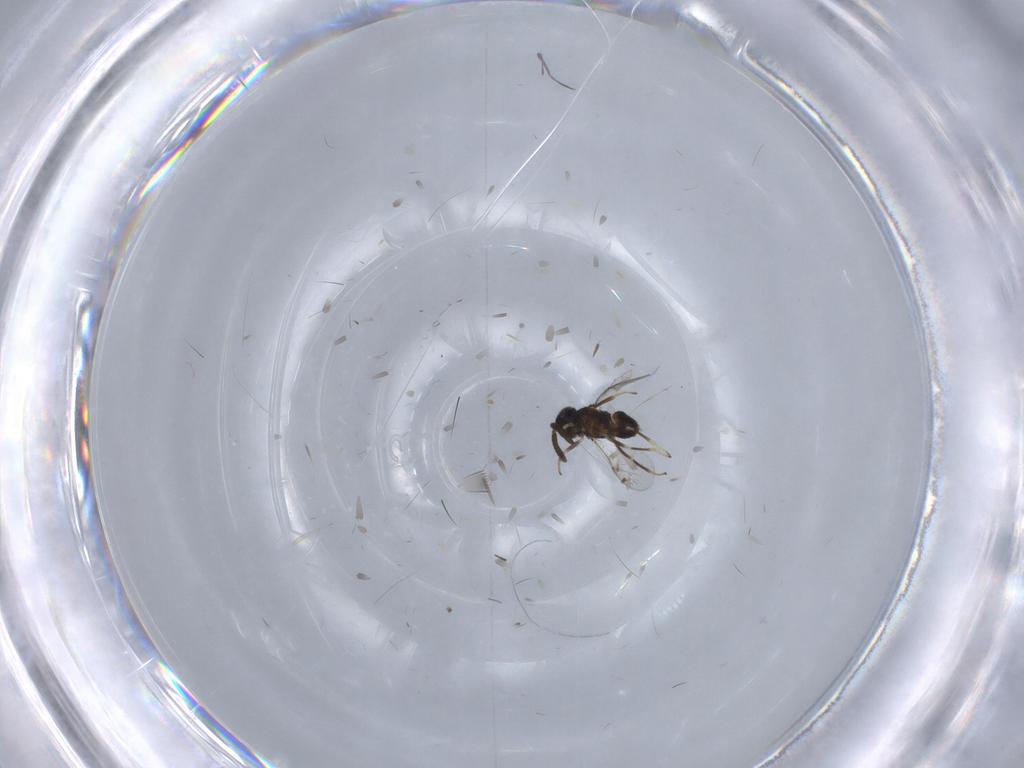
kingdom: Animalia
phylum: Arthropoda
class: Insecta
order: Hymenoptera
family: Encyrtidae
